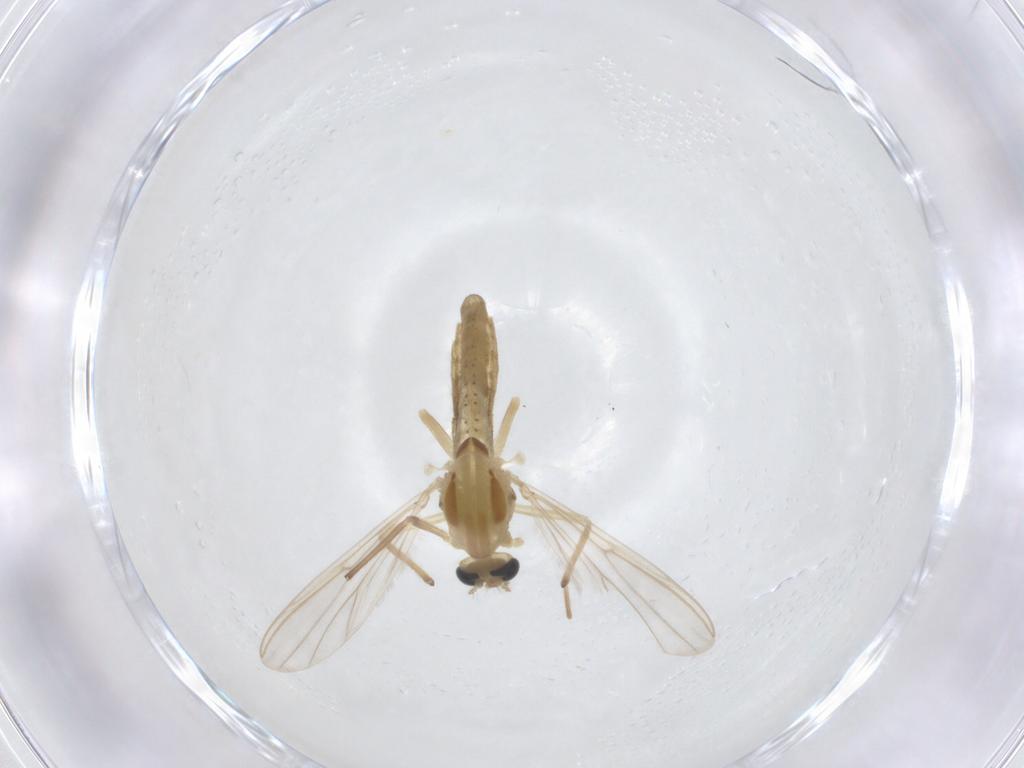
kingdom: Animalia
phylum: Arthropoda
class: Insecta
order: Diptera
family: Chironomidae
